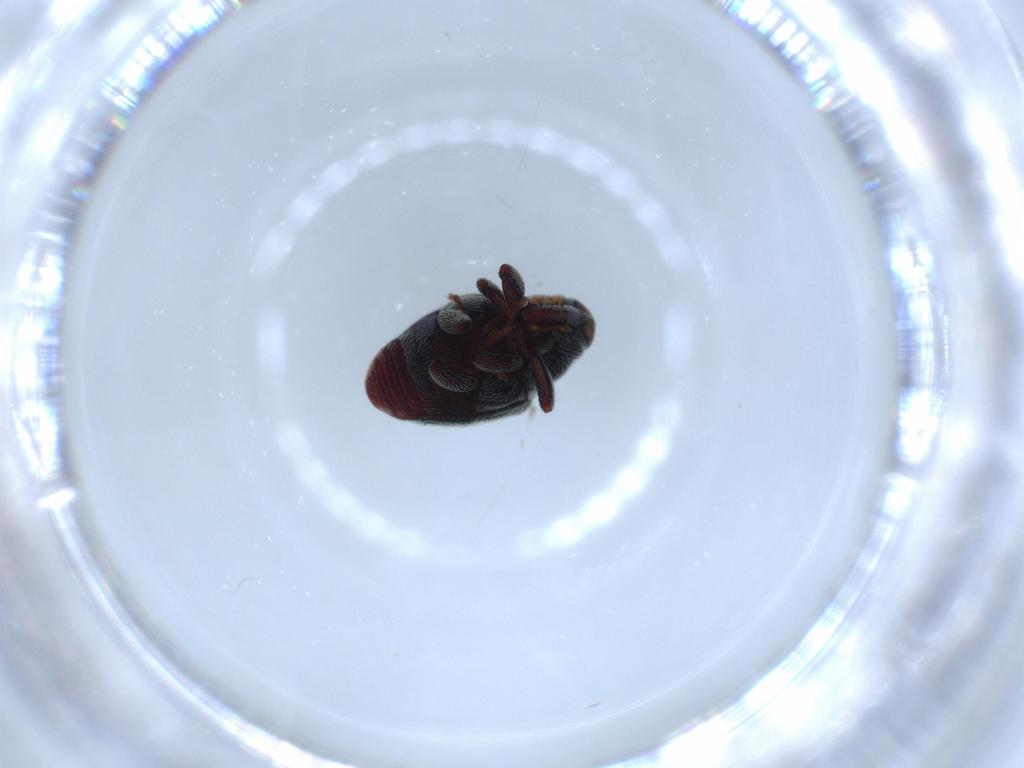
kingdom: Animalia
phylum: Arthropoda
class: Insecta
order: Coleoptera
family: Curculionidae
